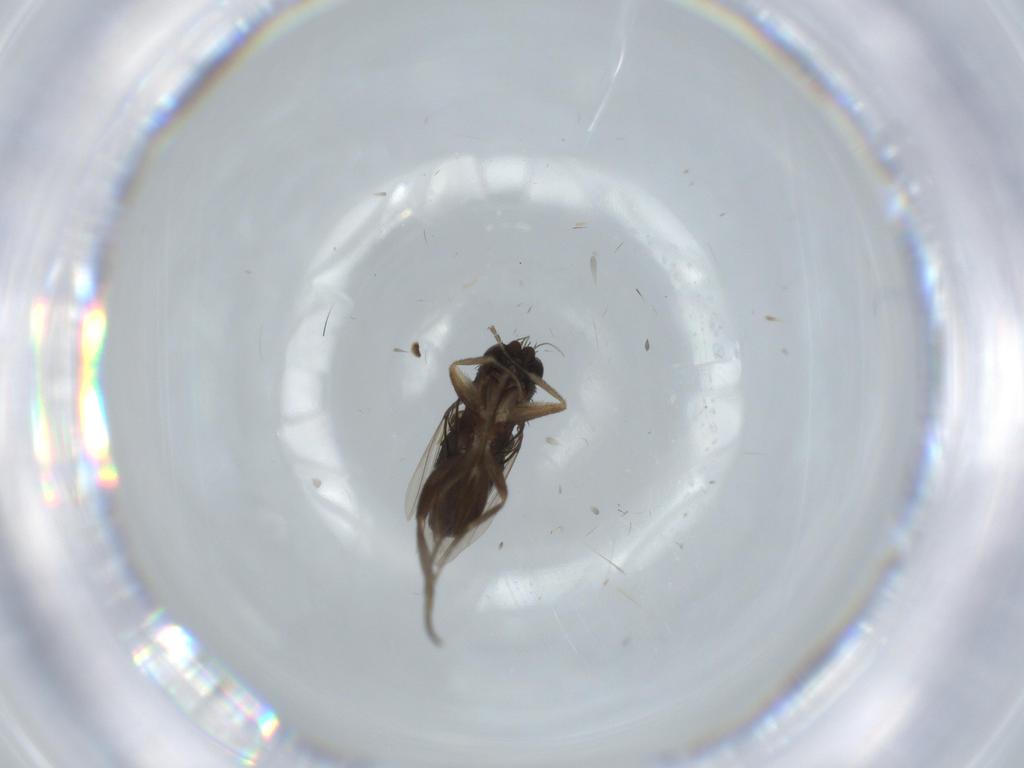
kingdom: Animalia
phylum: Arthropoda
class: Insecta
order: Diptera
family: Phoridae
